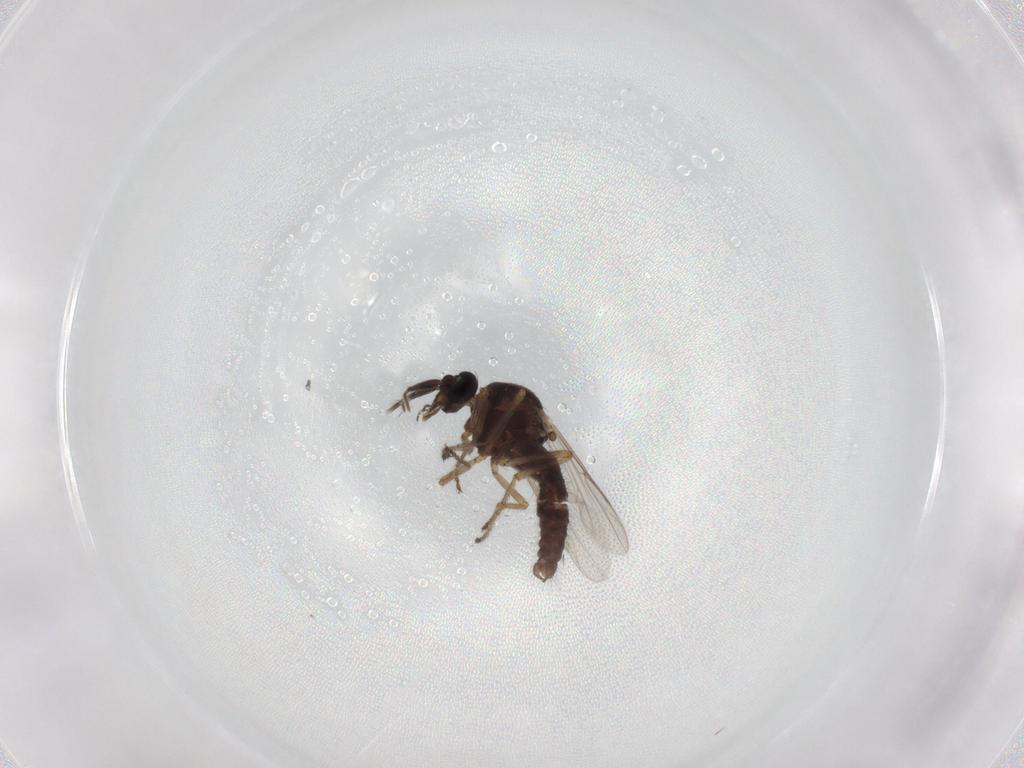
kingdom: Animalia
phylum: Arthropoda
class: Insecta
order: Diptera
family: Ceratopogonidae
